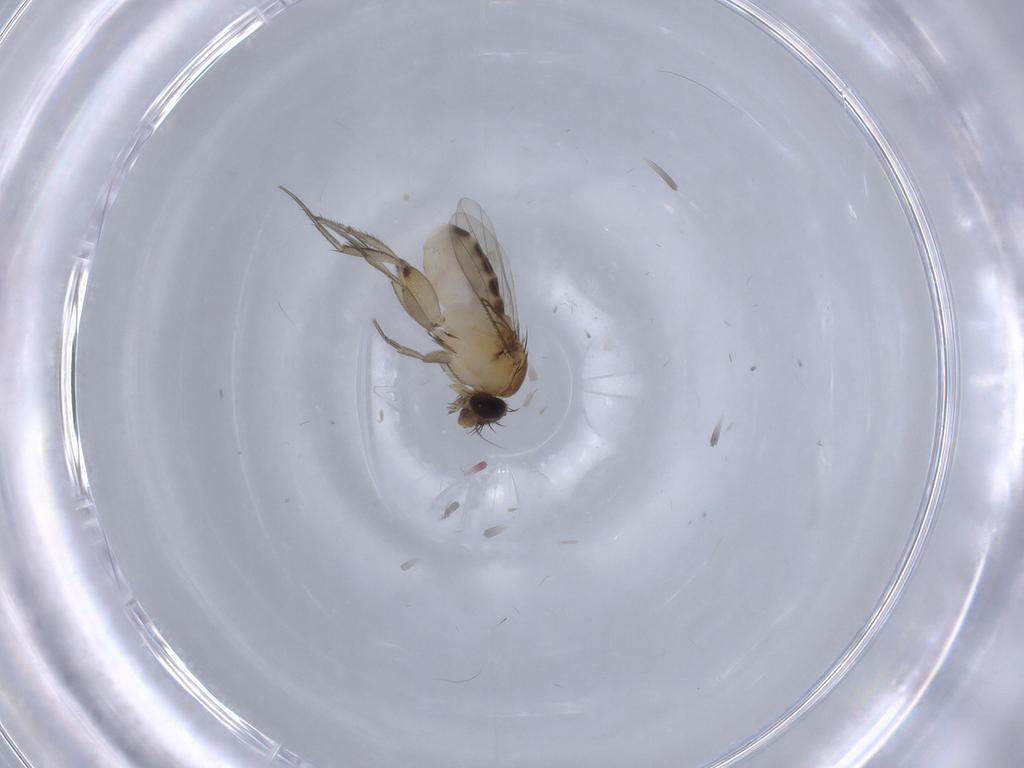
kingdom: Animalia
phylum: Arthropoda
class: Insecta
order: Diptera
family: Phoridae
